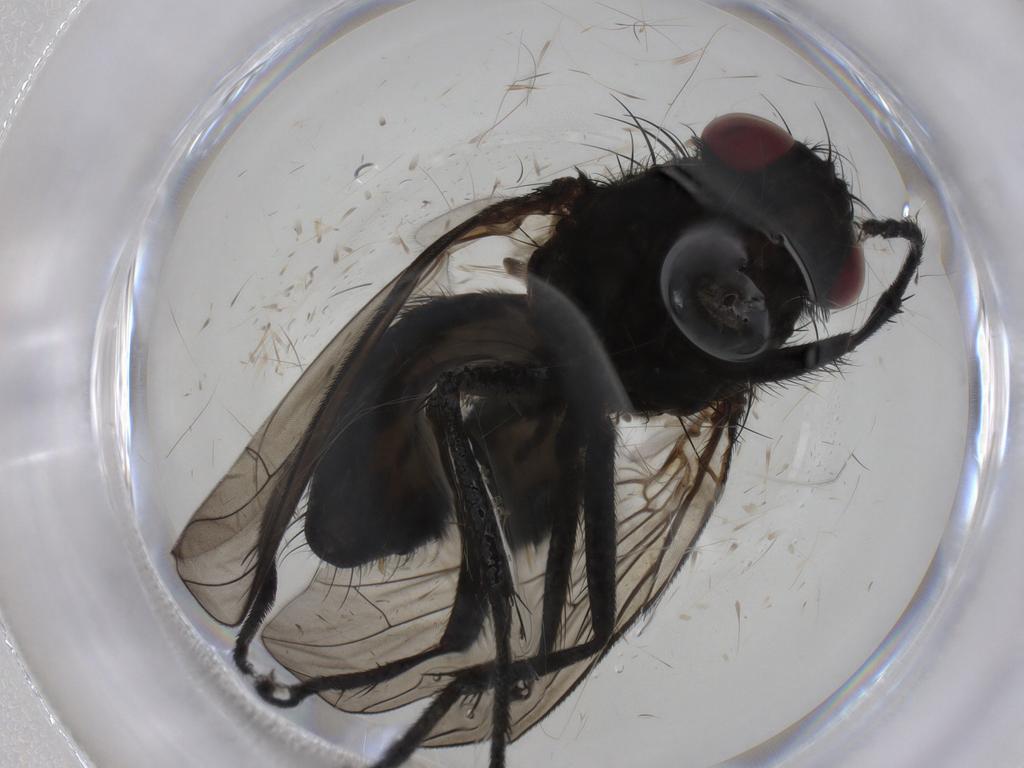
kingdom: Animalia
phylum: Arthropoda
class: Insecta
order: Diptera
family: Fannia
